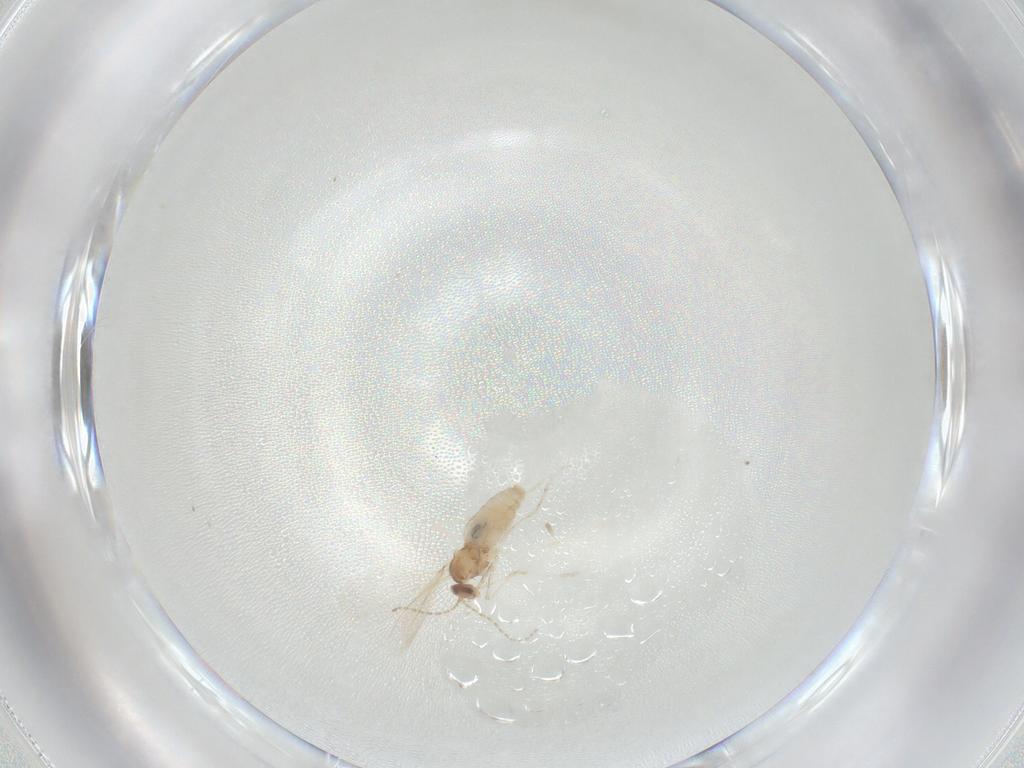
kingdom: Animalia
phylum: Arthropoda
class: Insecta
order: Diptera
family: Cecidomyiidae
